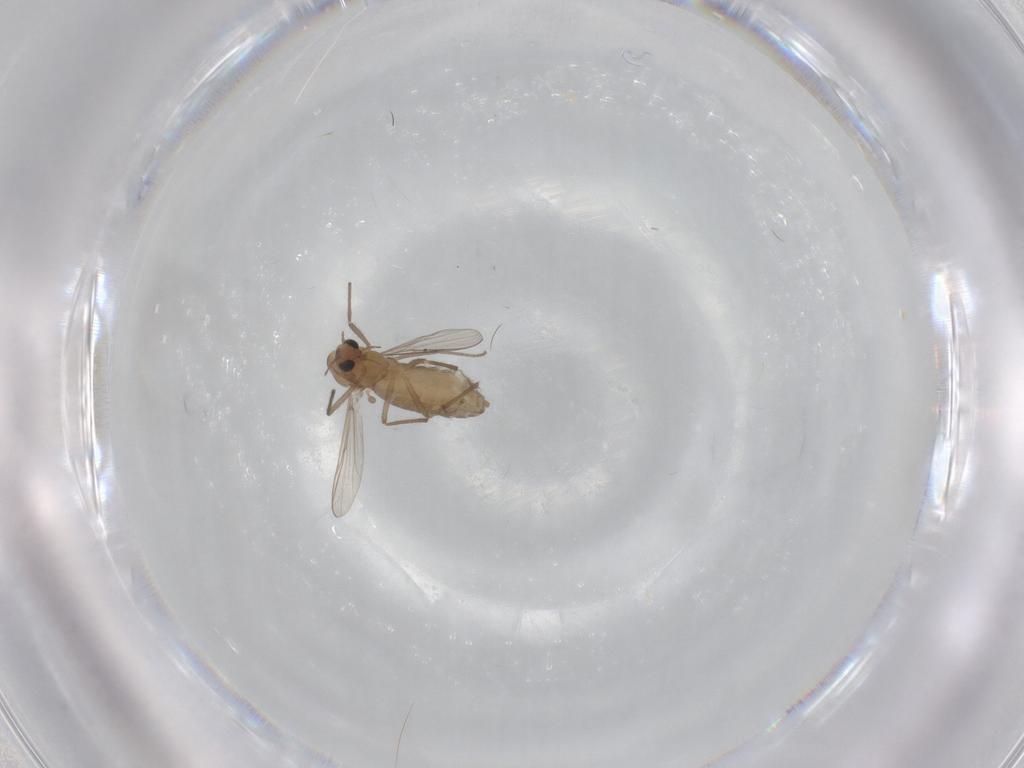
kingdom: Animalia
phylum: Arthropoda
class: Insecta
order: Diptera
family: Chironomidae
